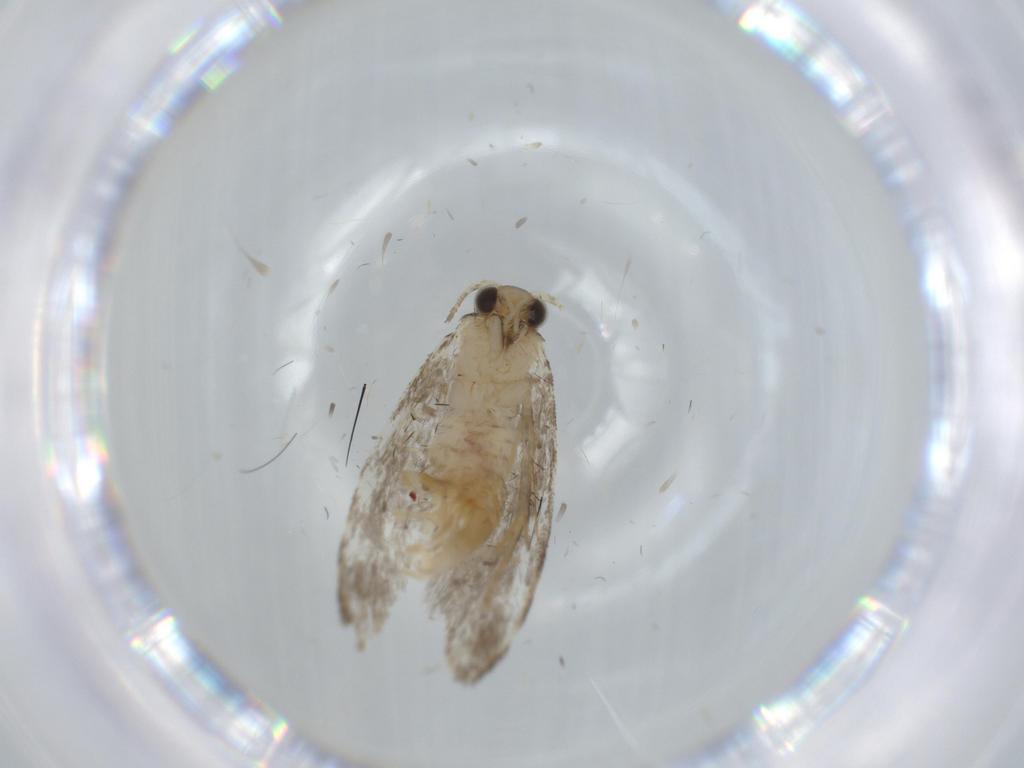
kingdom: Animalia
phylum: Arthropoda
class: Insecta
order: Lepidoptera
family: Tineidae
